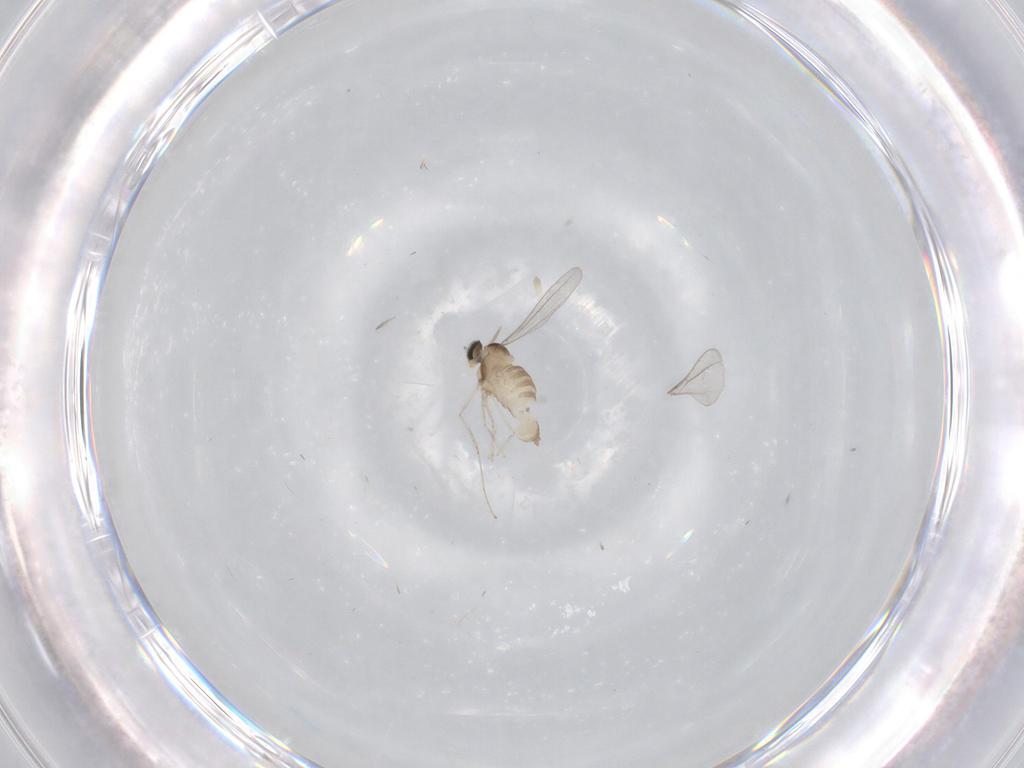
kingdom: Animalia
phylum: Arthropoda
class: Insecta
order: Diptera
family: Cecidomyiidae
